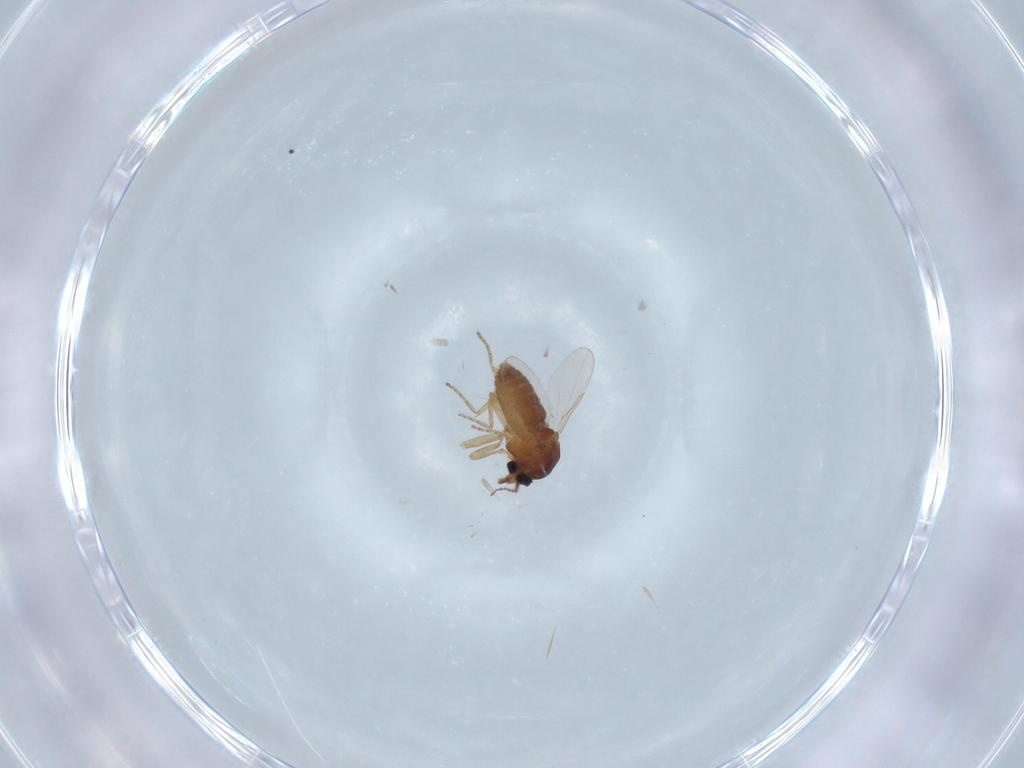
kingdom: Animalia
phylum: Arthropoda
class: Insecta
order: Diptera
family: Ceratopogonidae
